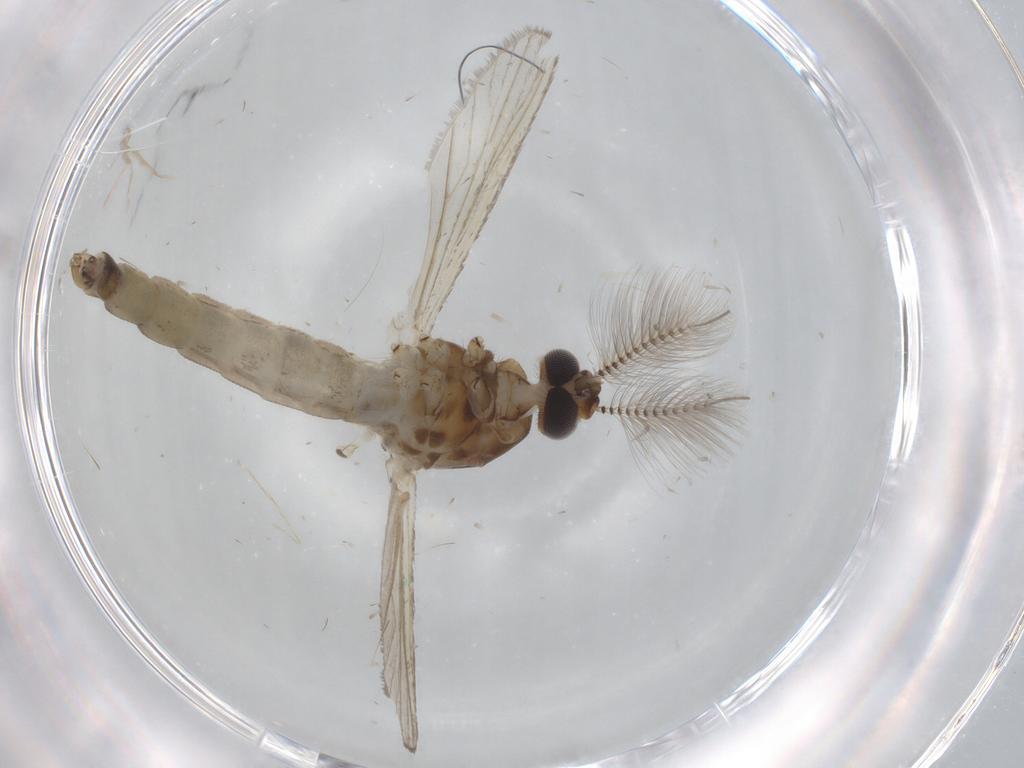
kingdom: Animalia
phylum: Arthropoda
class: Insecta
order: Diptera
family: Culicidae
